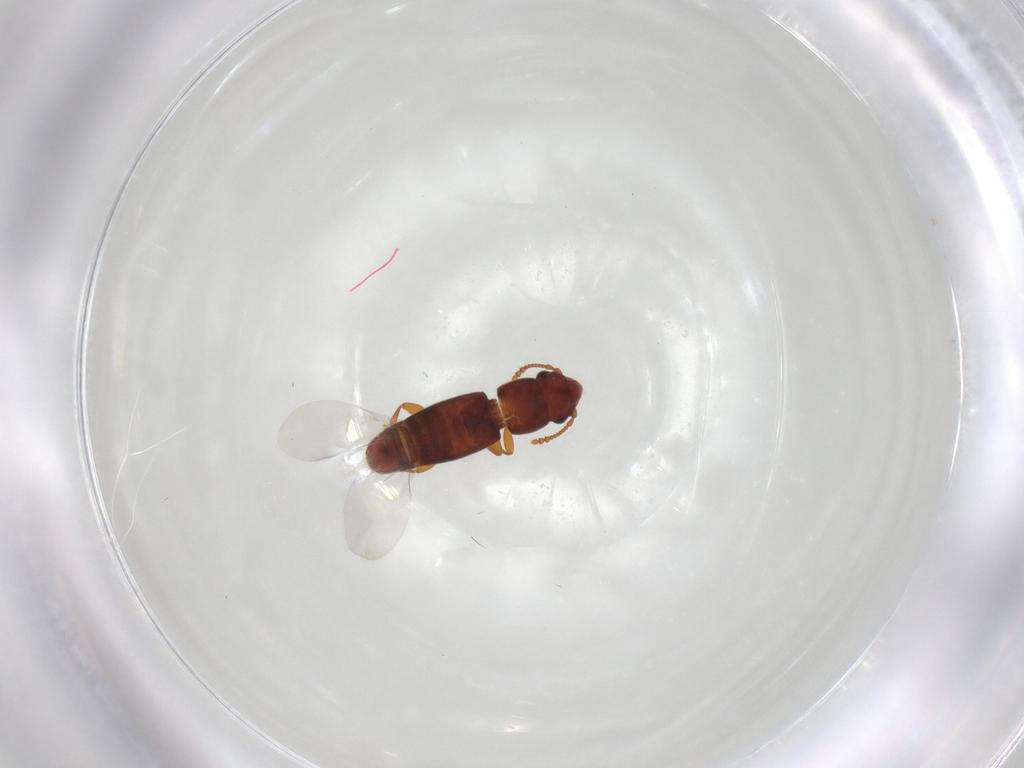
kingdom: Animalia
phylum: Arthropoda
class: Insecta
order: Coleoptera
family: Smicripidae
